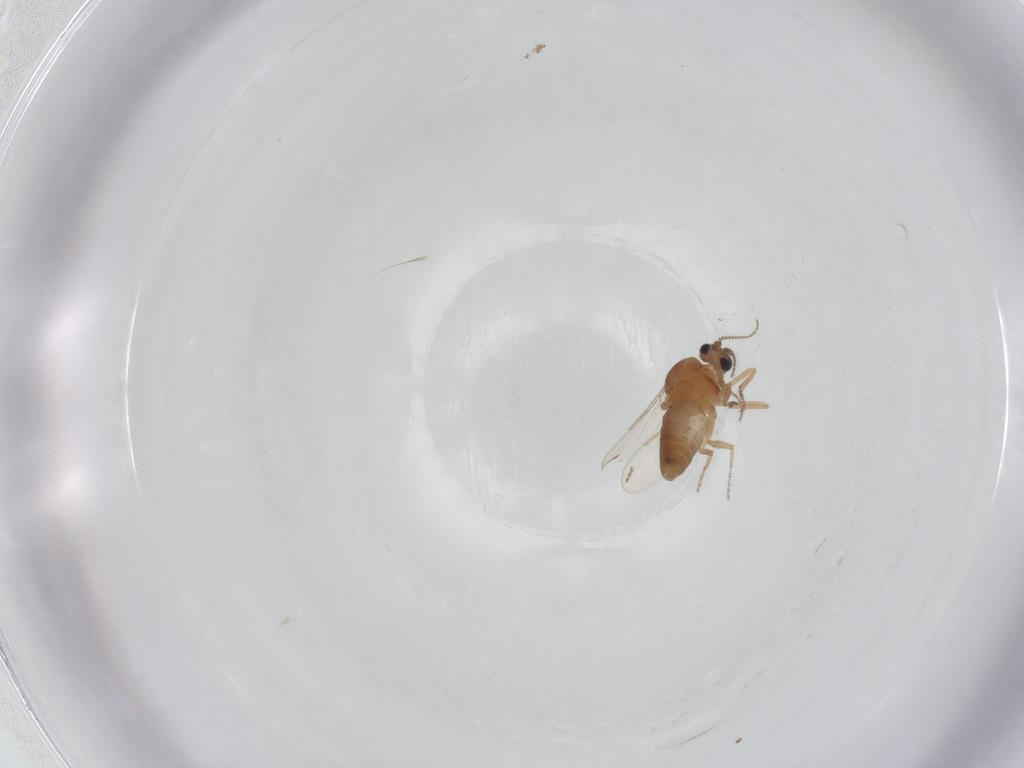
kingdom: Animalia
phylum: Arthropoda
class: Insecta
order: Diptera
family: Ceratopogonidae
